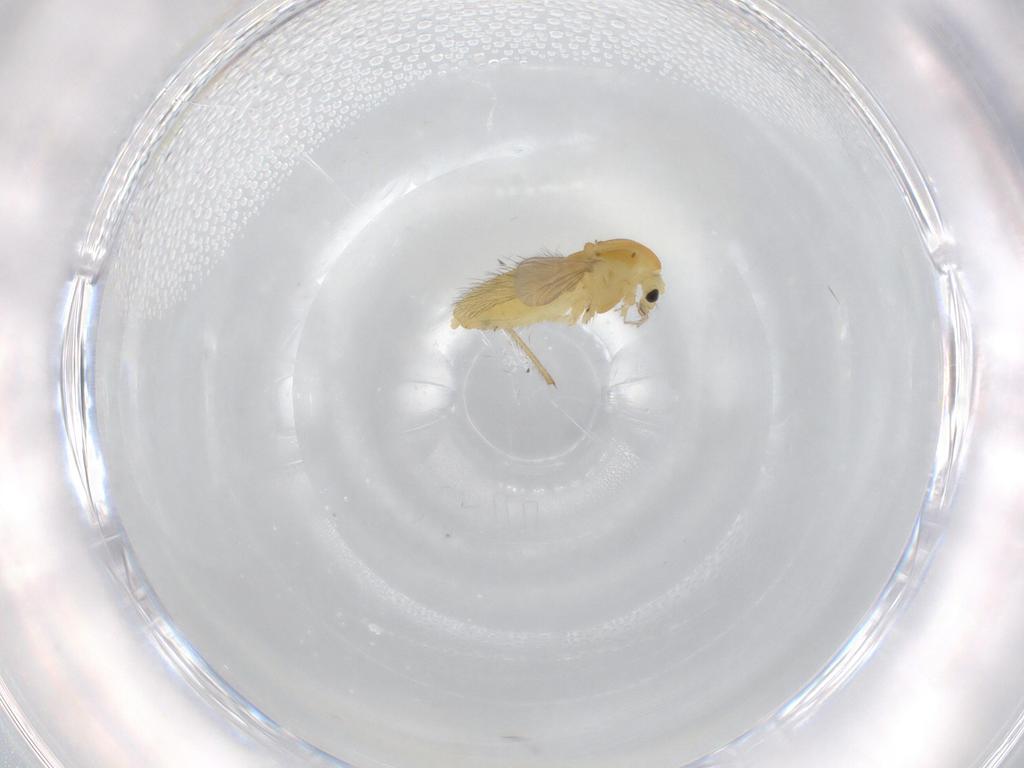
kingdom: Animalia
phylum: Arthropoda
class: Insecta
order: Diptera
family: Chironomidae
